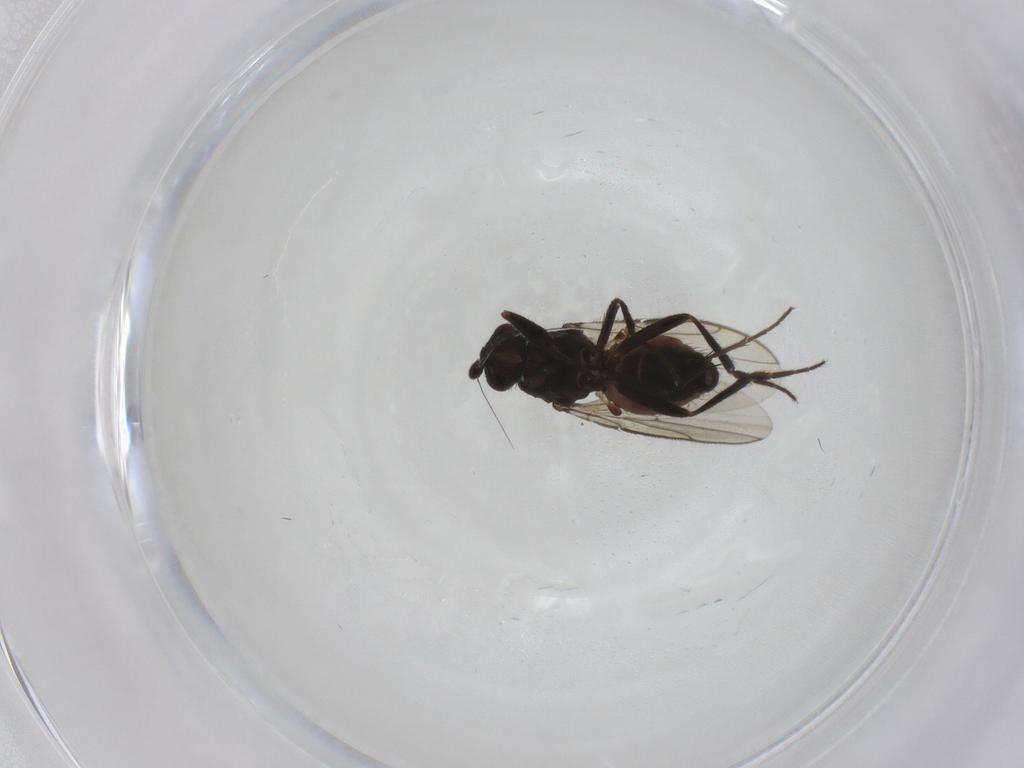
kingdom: Animalia
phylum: Arthropoda
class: Insecta
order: Diptera
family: Sphaeroceridae
